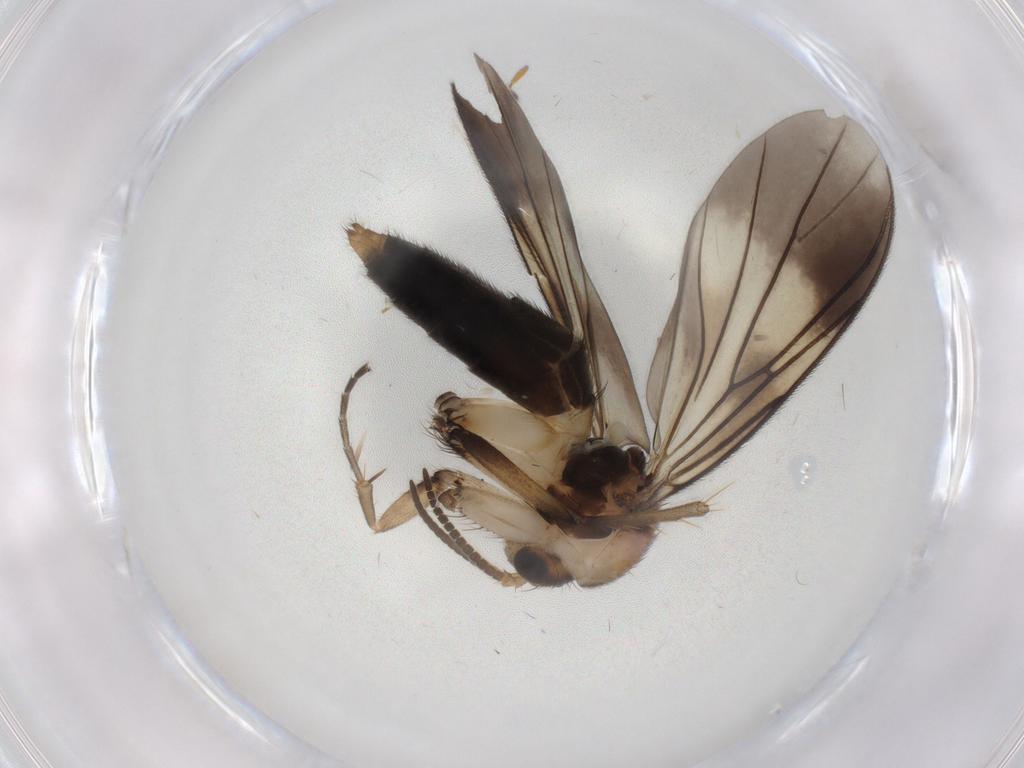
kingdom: Animalia
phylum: Arthropoda
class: Insecta
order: Diptera
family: Mycetophilidae
